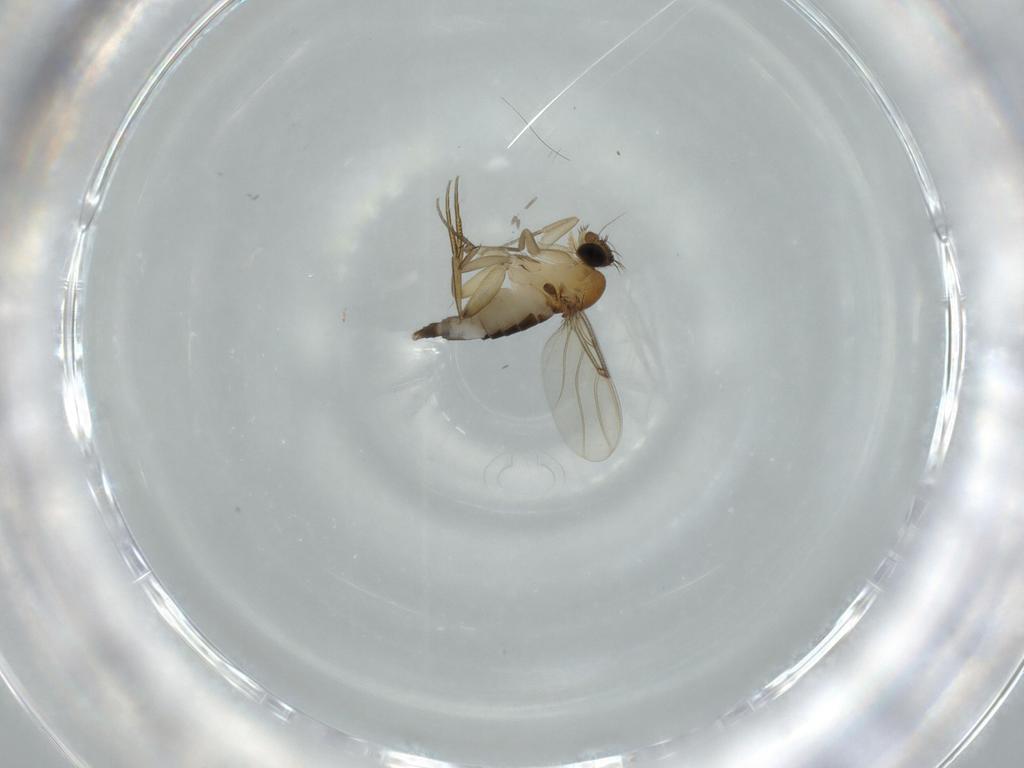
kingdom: Animalia
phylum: Arthropoda
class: Insecta
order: Diptera
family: Phoridae
